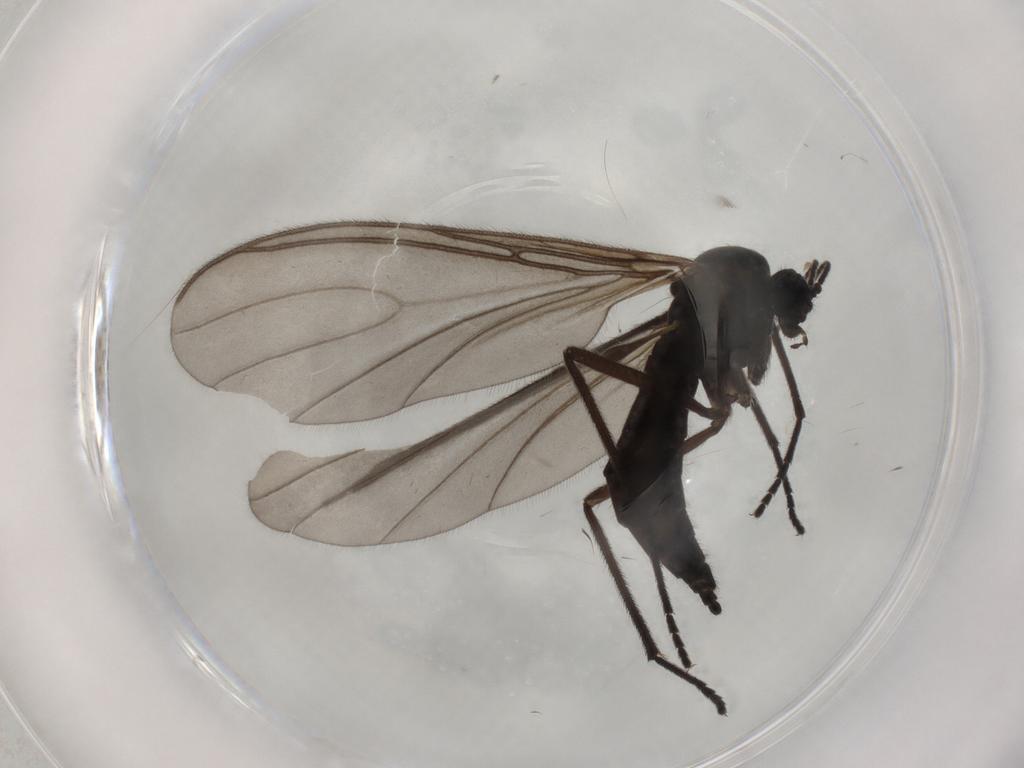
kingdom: Animalia
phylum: Arthropoda
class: Insecta
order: Diptera
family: Sciaridae
